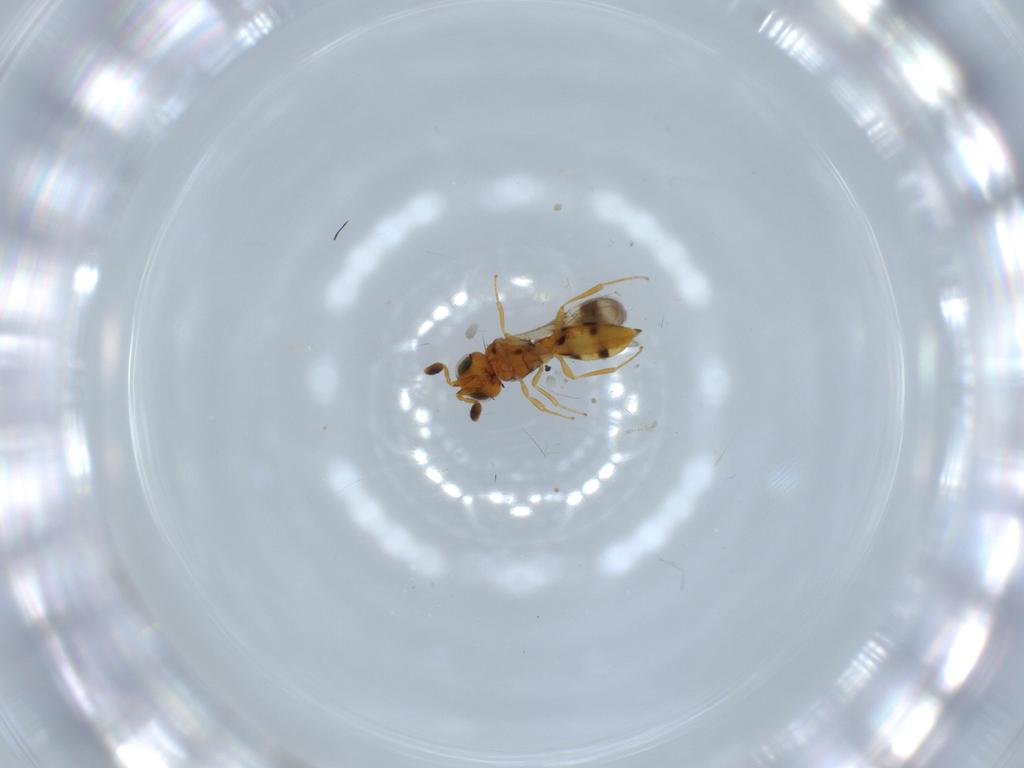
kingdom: Animalia
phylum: Arthropoda
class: Insecta
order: Hymenoptera
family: Scelionidae
